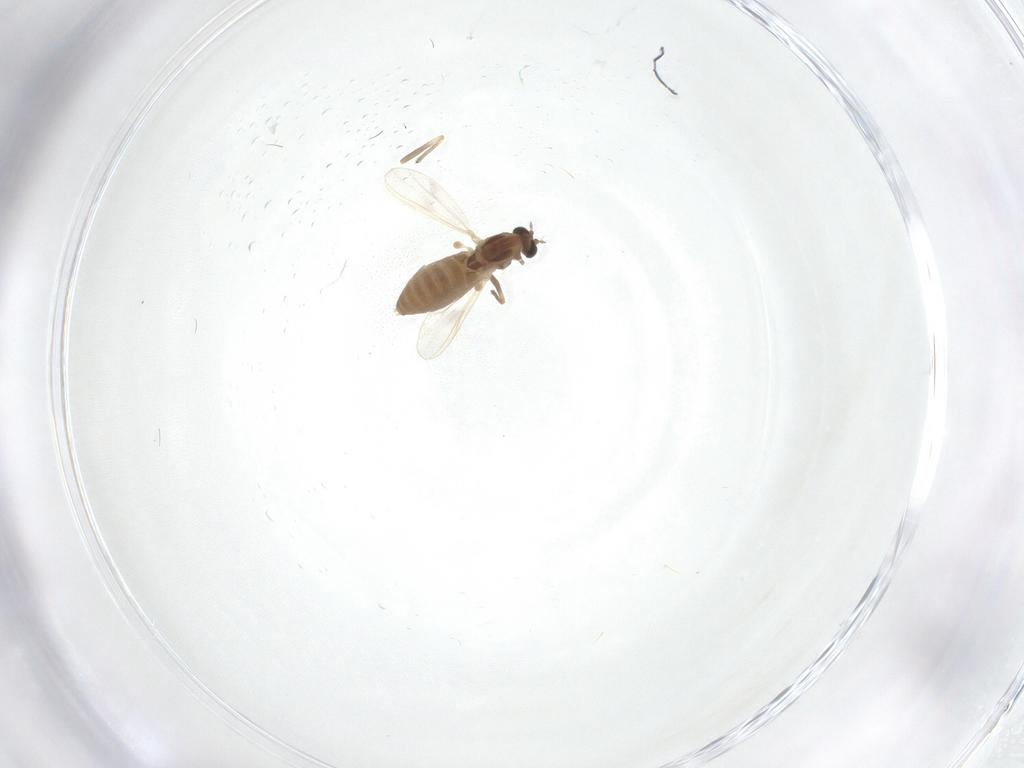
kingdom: Animalia
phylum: Arthropoda
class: Insecta
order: Diptera
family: Chironomidae
